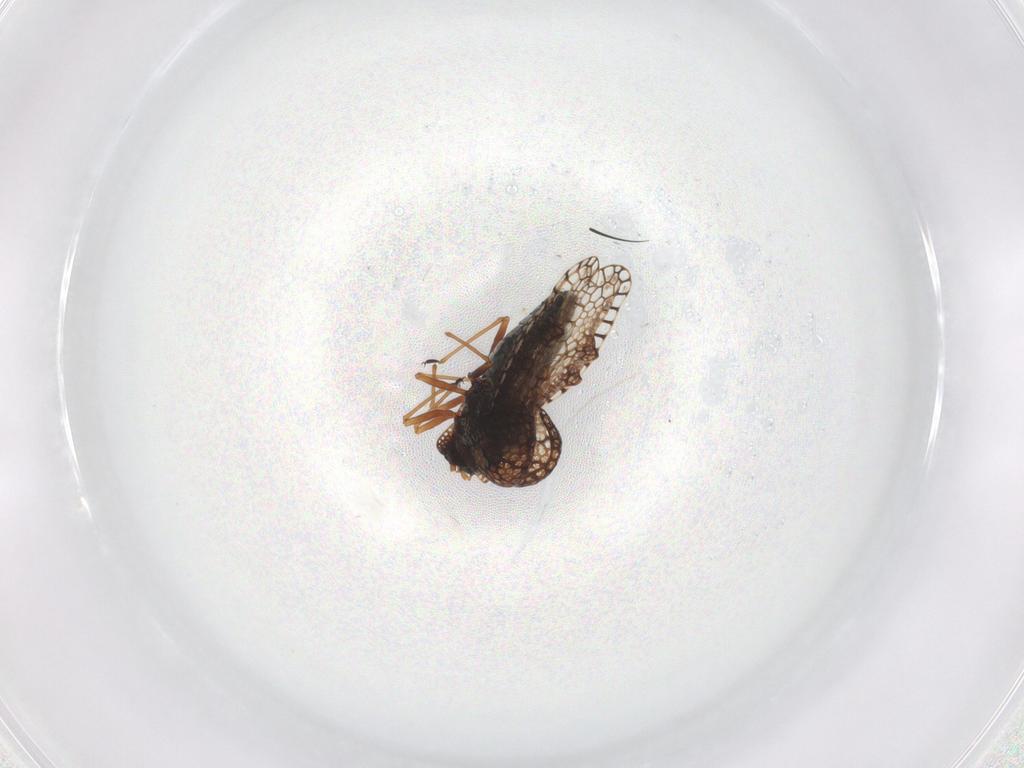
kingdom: Animalia
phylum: Arthropoda
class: Insecta
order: Hemiptera
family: Tingidae
